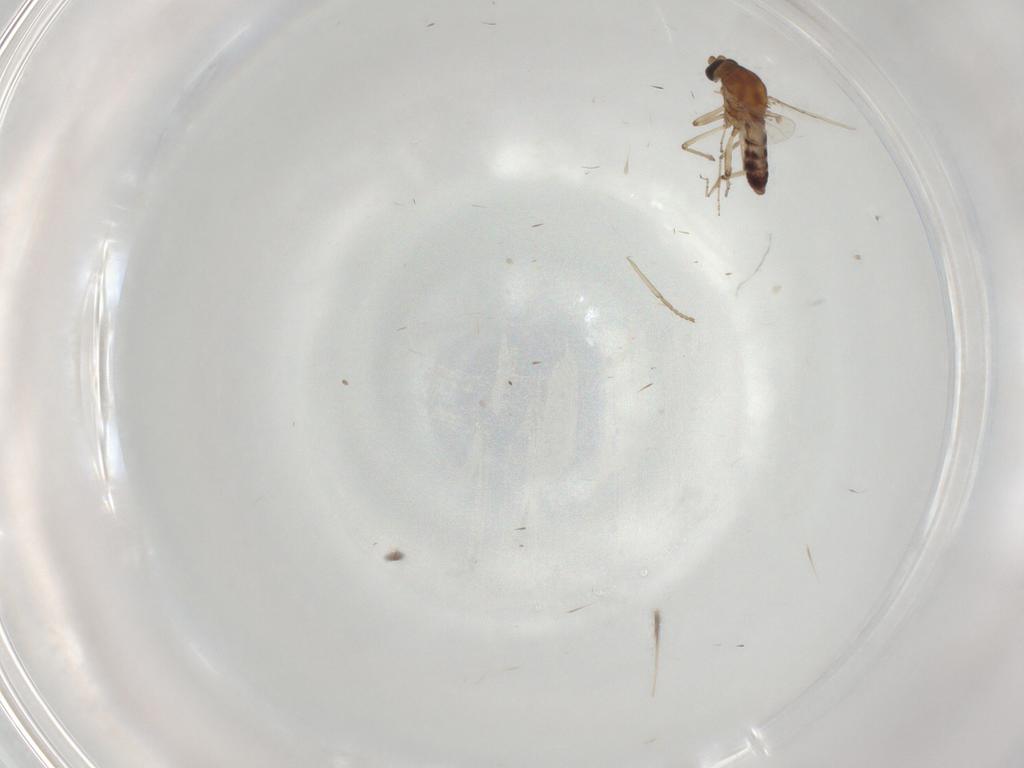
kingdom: Animalia
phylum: Arthropoda
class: Insecta
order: Diptera
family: Ceratopogonidae
